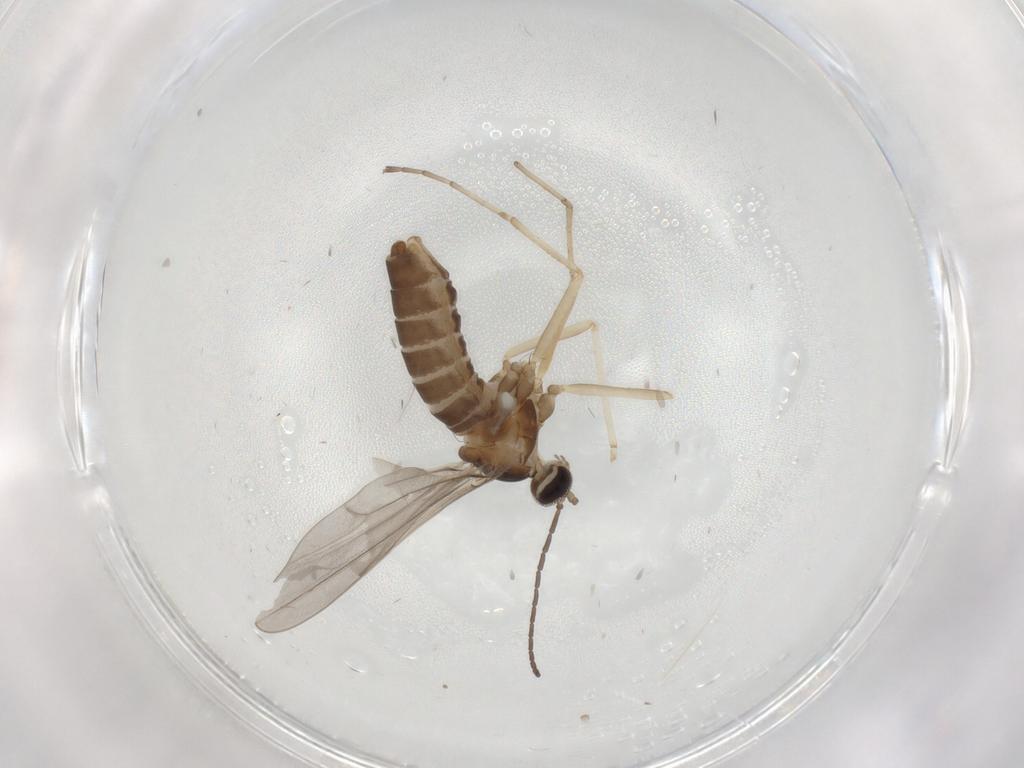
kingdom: Animalia
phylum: Arthropoda
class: Insecta
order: Diptera
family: Cecidomyiidae
